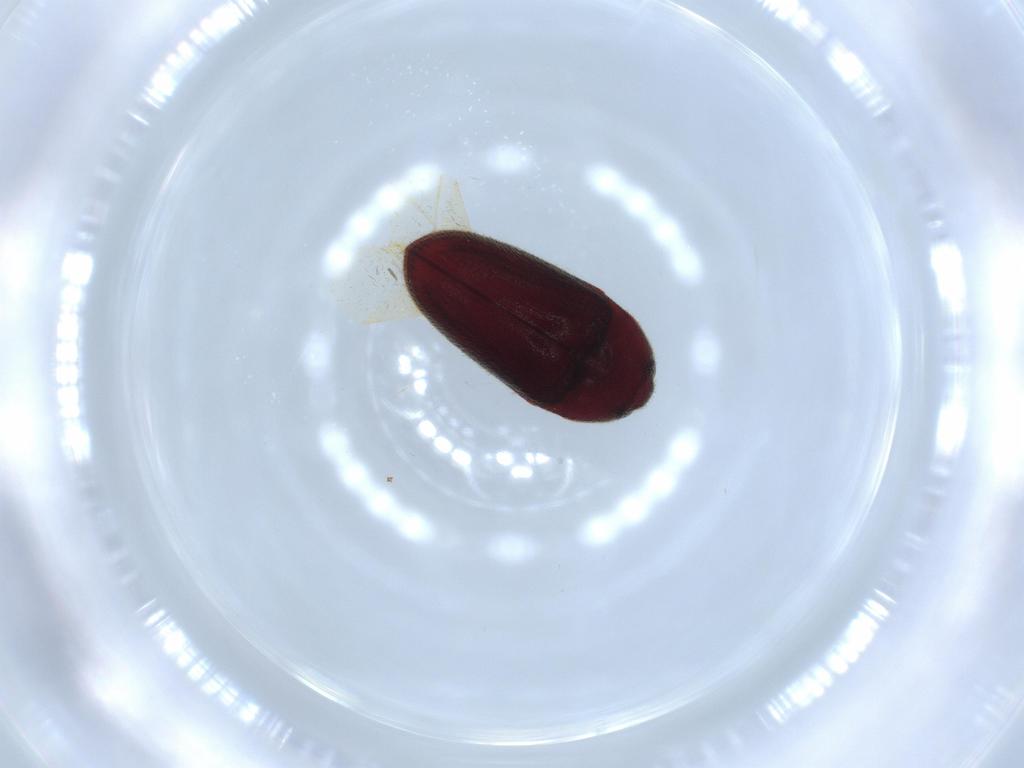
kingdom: Animalia
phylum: Arthropoda
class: Insecta
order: Coleoptera
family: Throscidae
